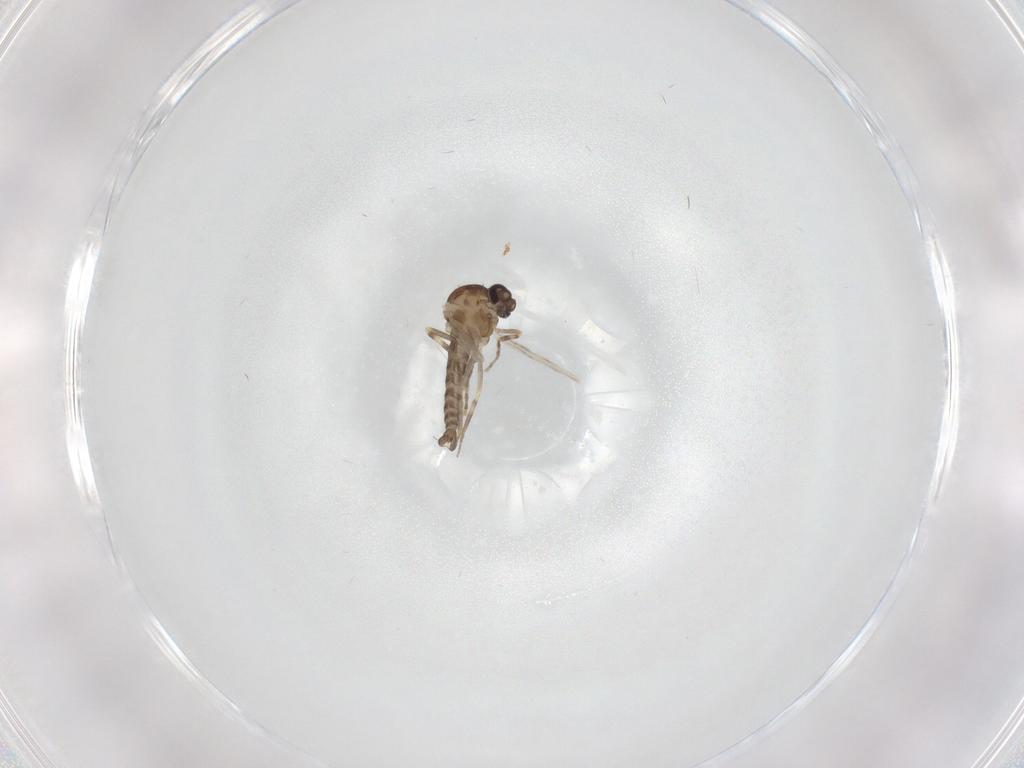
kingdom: Animalia
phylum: Arthropoda
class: Insecta
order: Diptera
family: Ceratopogonidae
